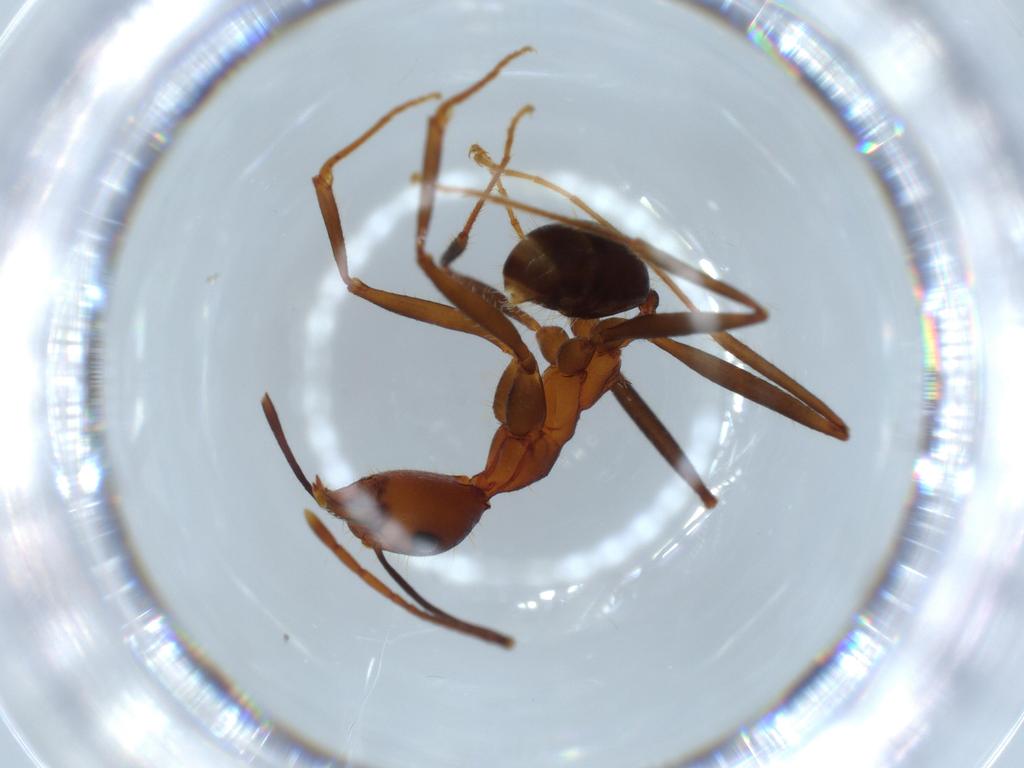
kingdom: Animalia
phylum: Arthropoda
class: Insecta
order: Hymenoptera
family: Formicidae
